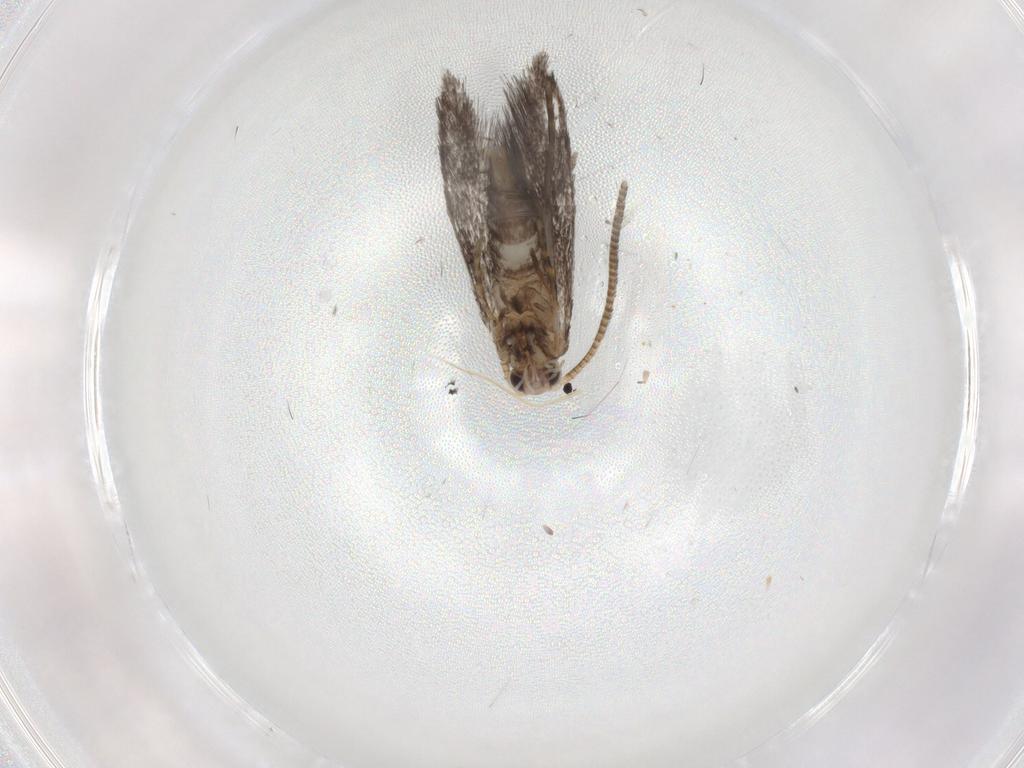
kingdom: Animalia
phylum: Arthropoda
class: Insecta
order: Lepidoptera
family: Tineidae
